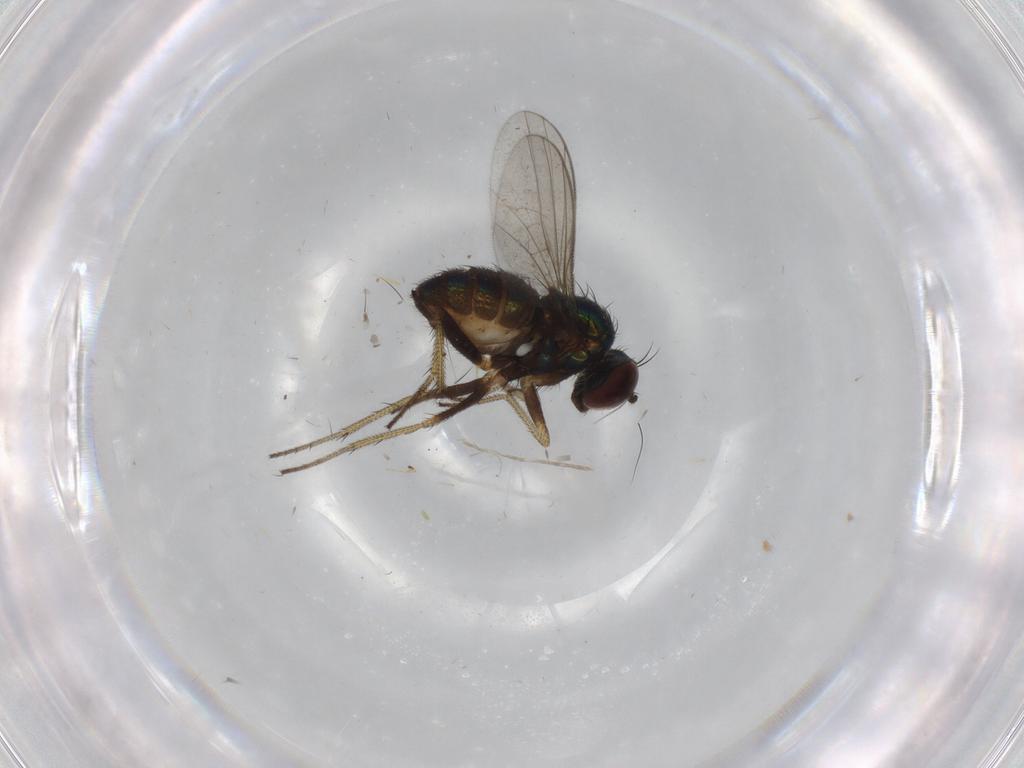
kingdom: Animalia
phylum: Arthropoda
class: Insecta
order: Diptera
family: Dolichopodidae
